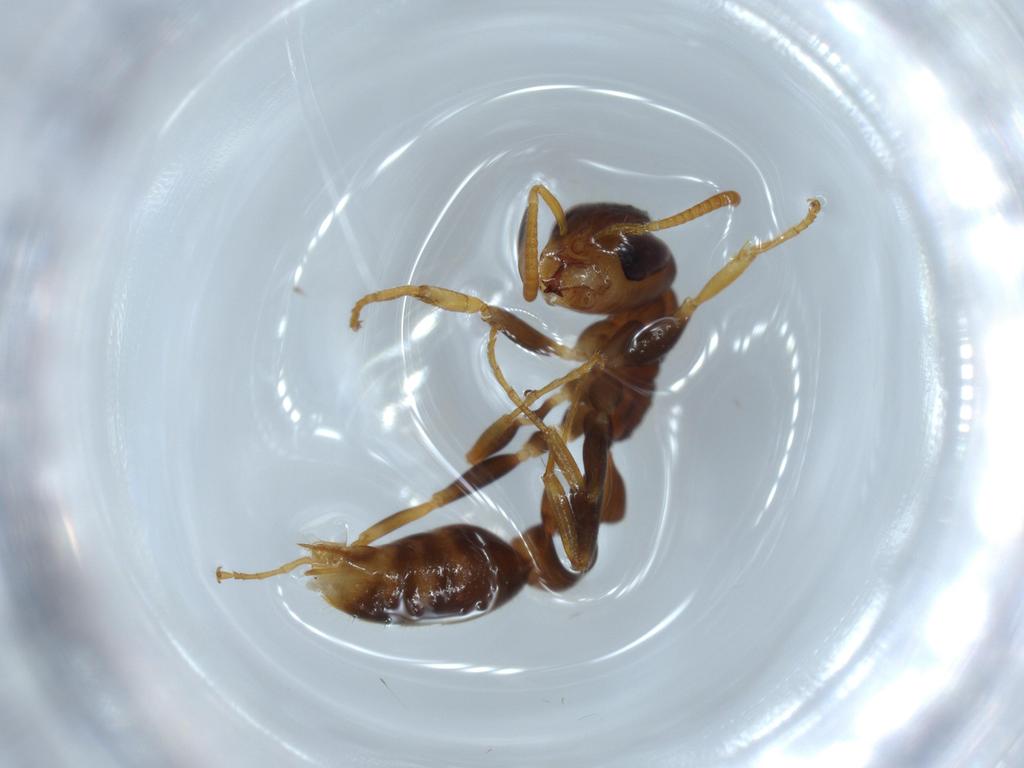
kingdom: Animalia
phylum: Arthropoda
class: Insecta
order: Hymenoptera
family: Formicidae
